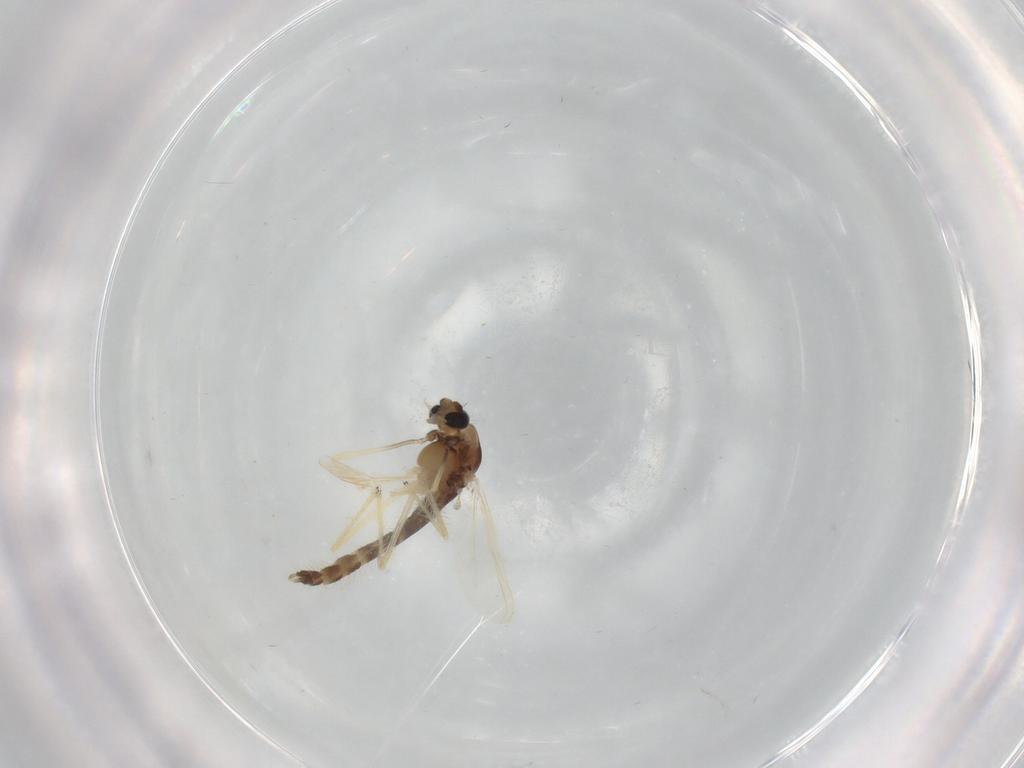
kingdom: Animalia
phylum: Arthropoda
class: Insecta
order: Diptera
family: Chironomidae
